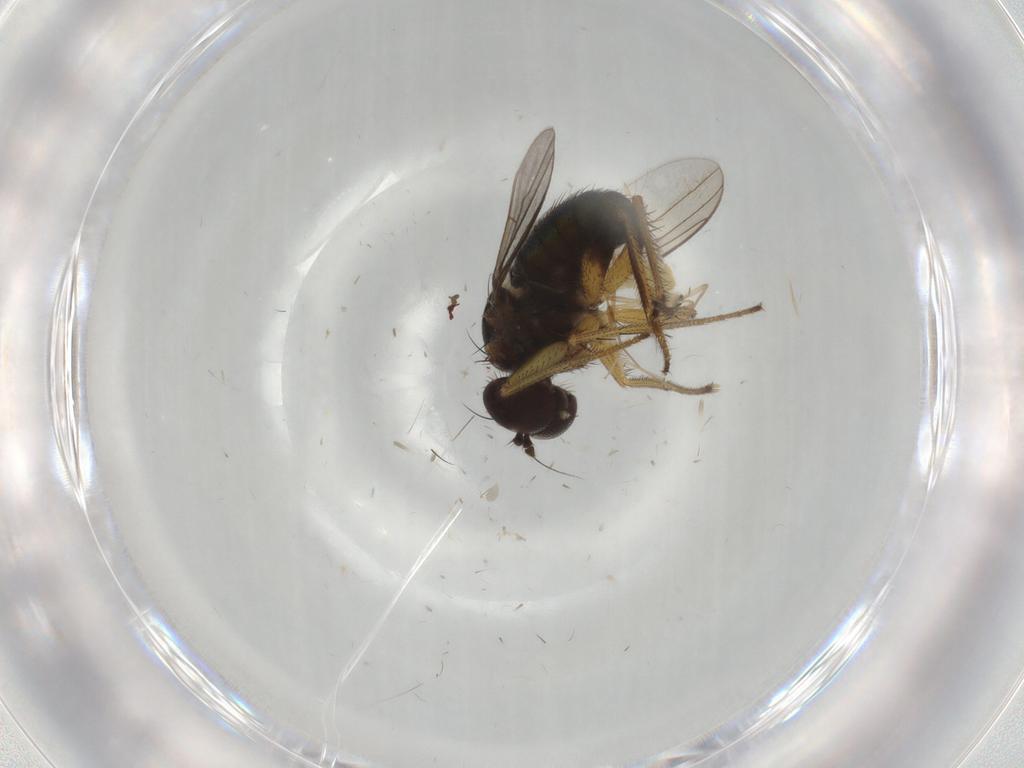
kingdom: Animalia
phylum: Arthropoda
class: Insecta
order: Diptera
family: Dolichopodidae
